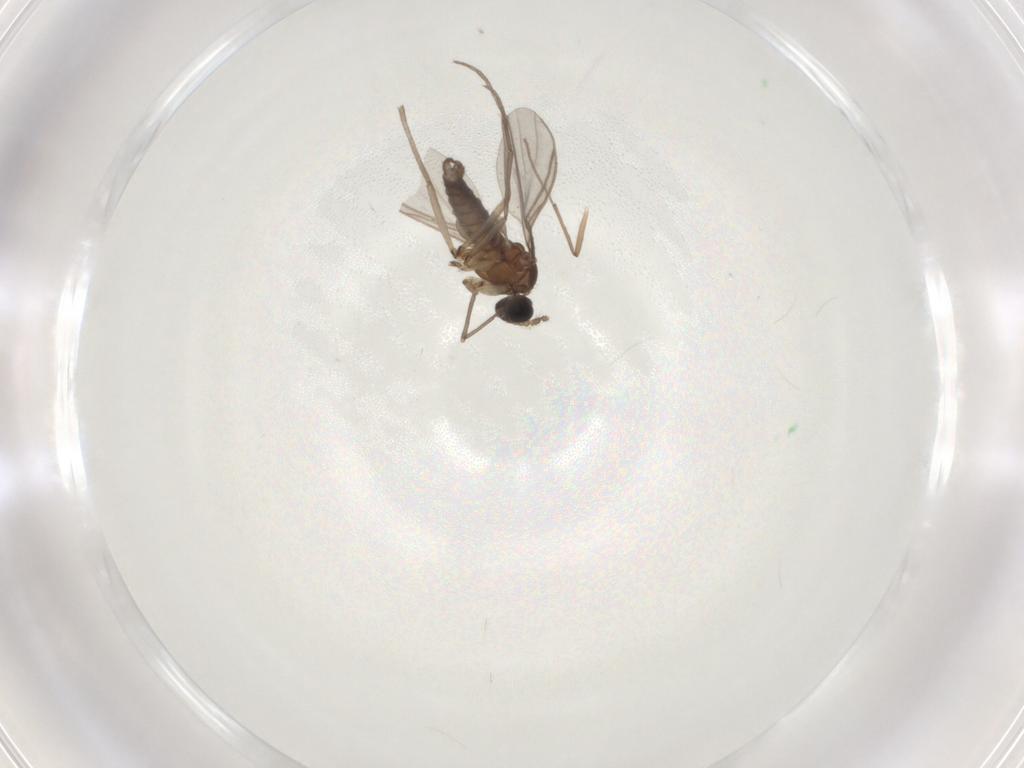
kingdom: Animalia
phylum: Arthropoda
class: Insecta
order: Diptera
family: Sciaridae
